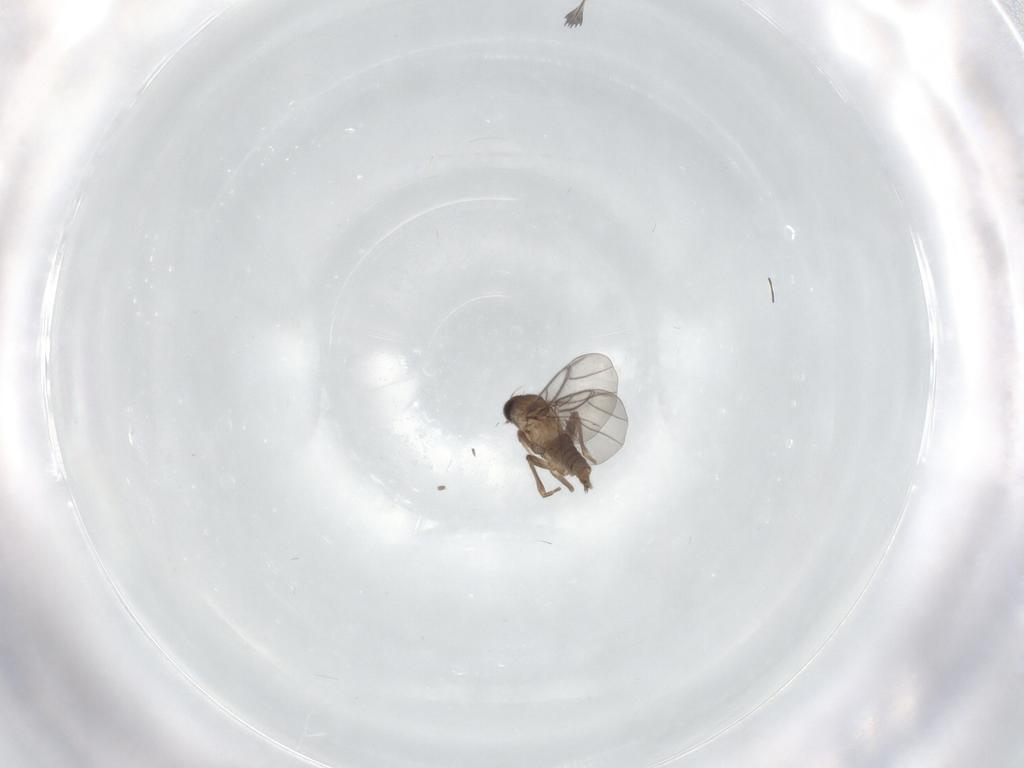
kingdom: Animalia
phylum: Arthropoda
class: Insecta
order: Diptera
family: Sciaridae
